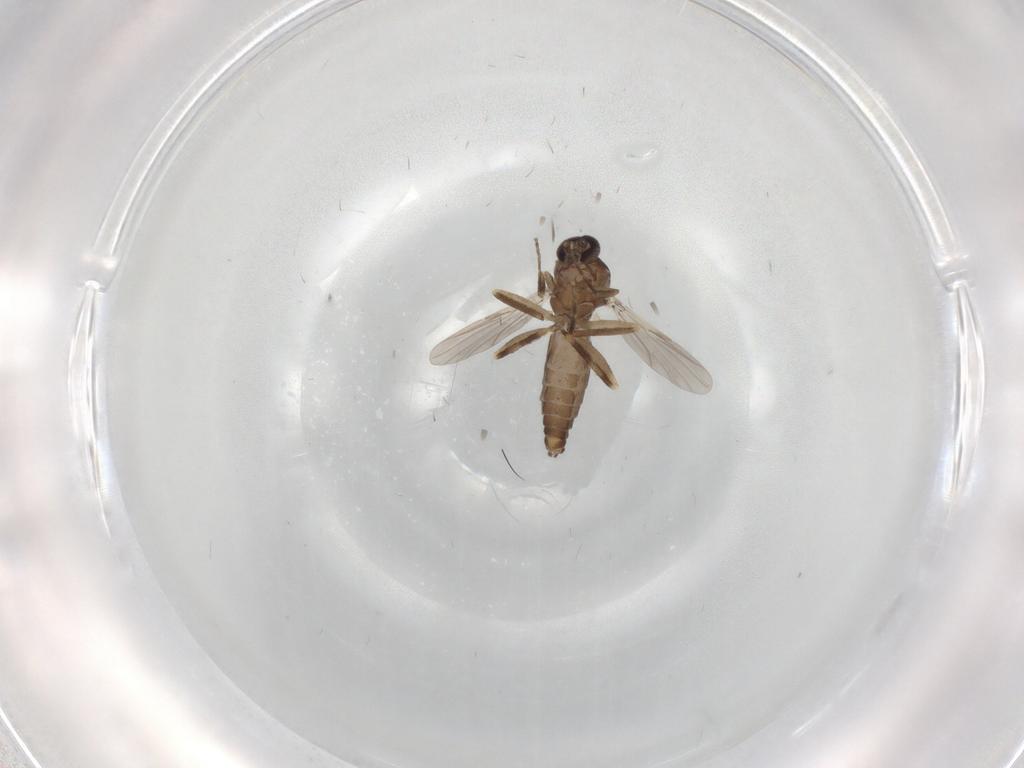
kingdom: Animalia
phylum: Arthropoda
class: Insecta
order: Diptera
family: Ceratopogonidae
